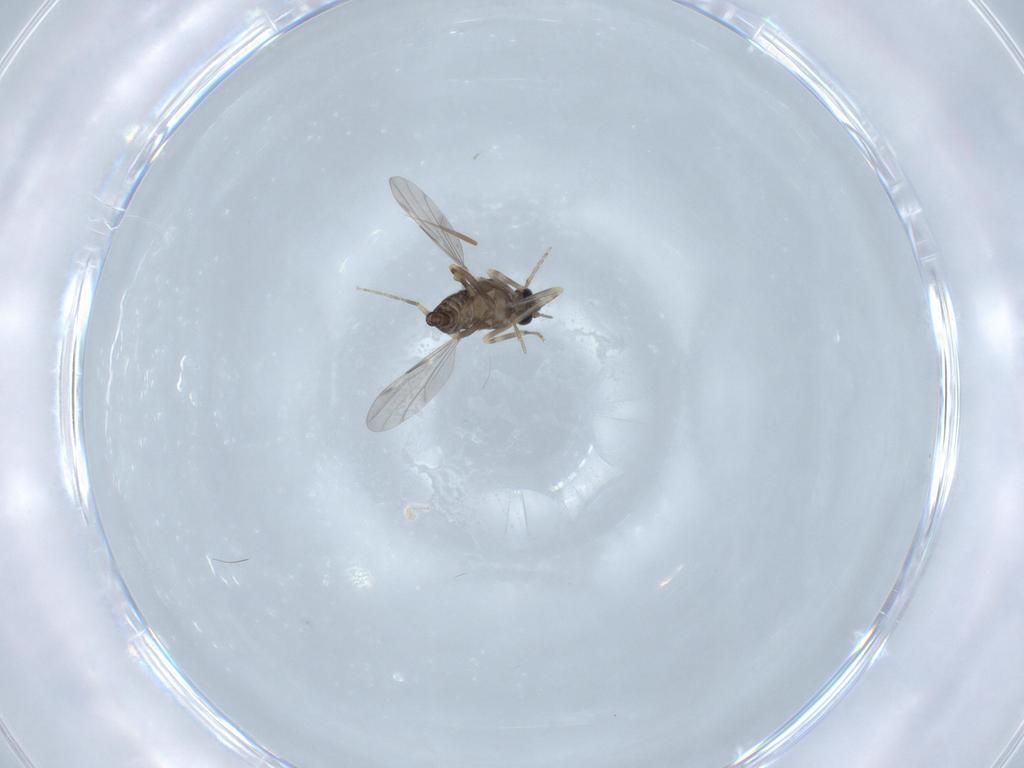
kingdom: Animalia
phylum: Arthropoda
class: Insecta
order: Diptera
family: Ceratopogonidae
